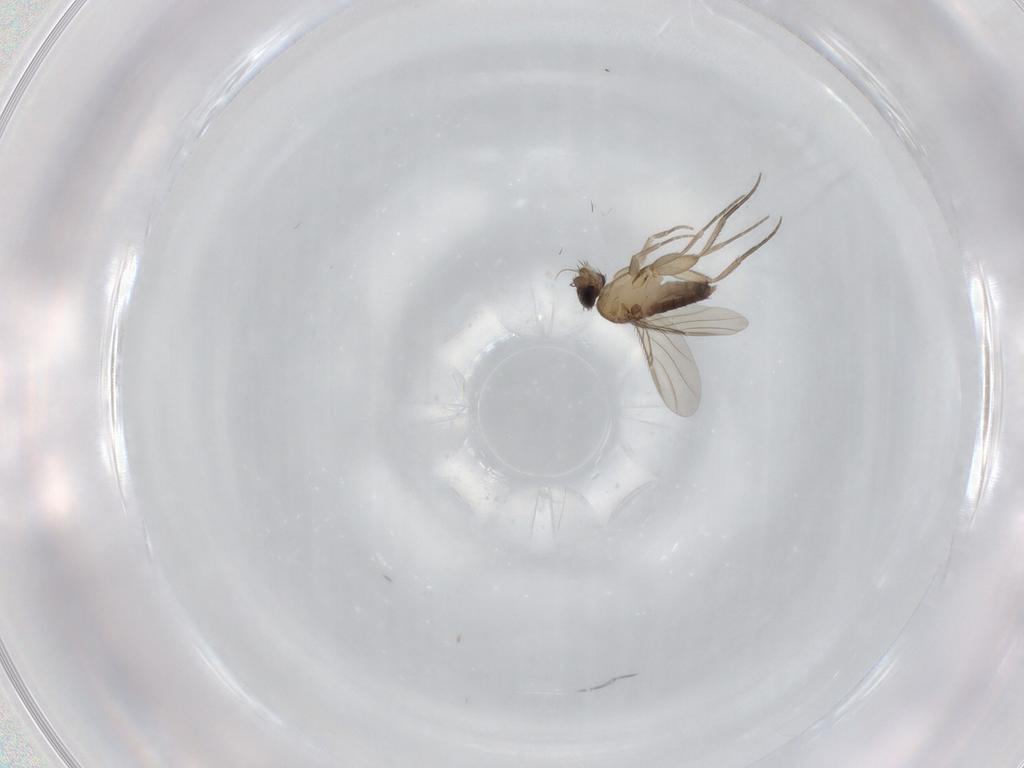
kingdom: Animalia
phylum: Arthropoda
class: Insecta
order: Diptera
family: Phoridae
